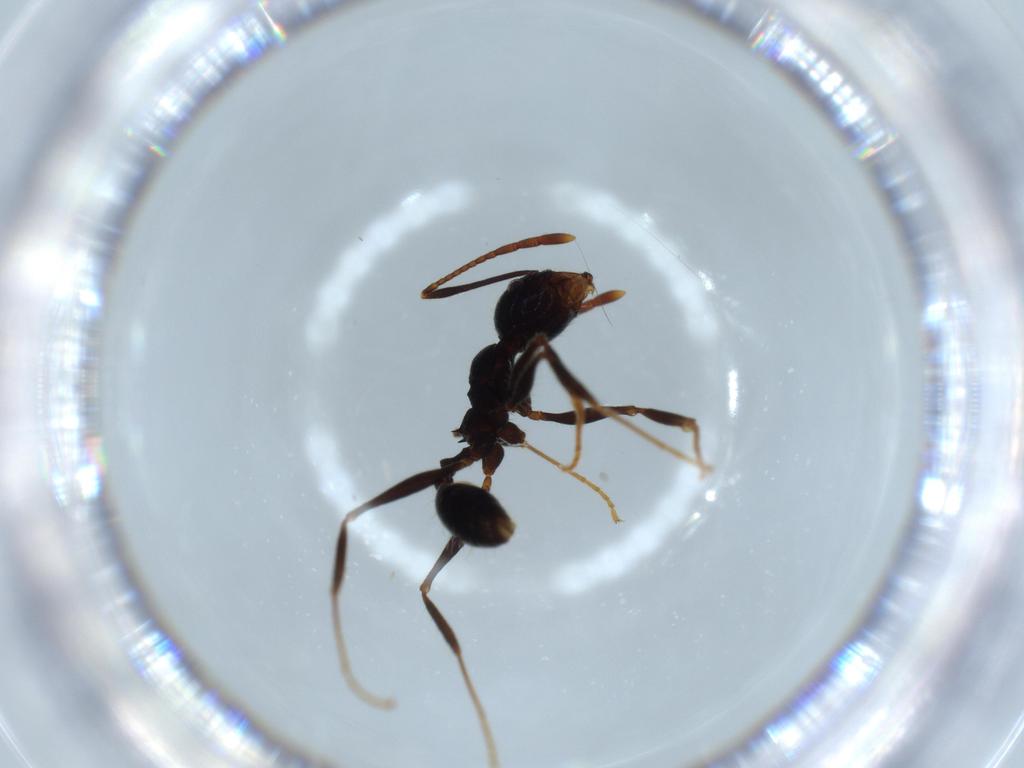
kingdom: Animalia
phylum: Arthropoda
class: Insecta
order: Hymenoptera
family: Formicidae
